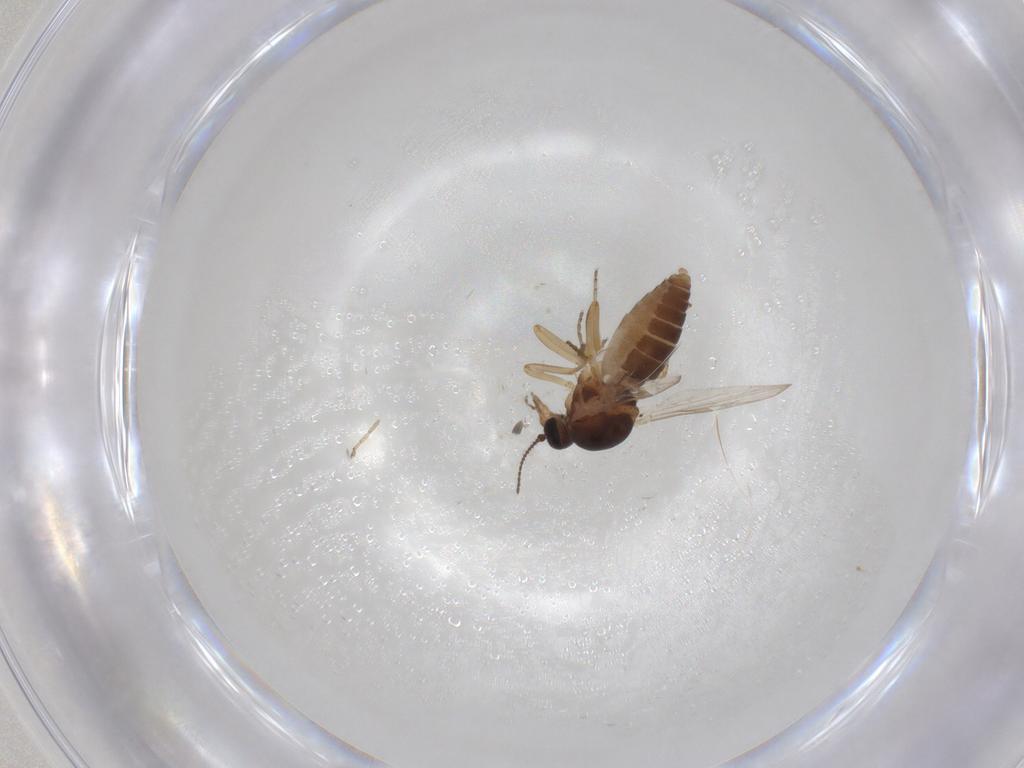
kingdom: Animalia
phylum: Arthropoda
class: Insecta
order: Diptera
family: Ceratopogonidae
